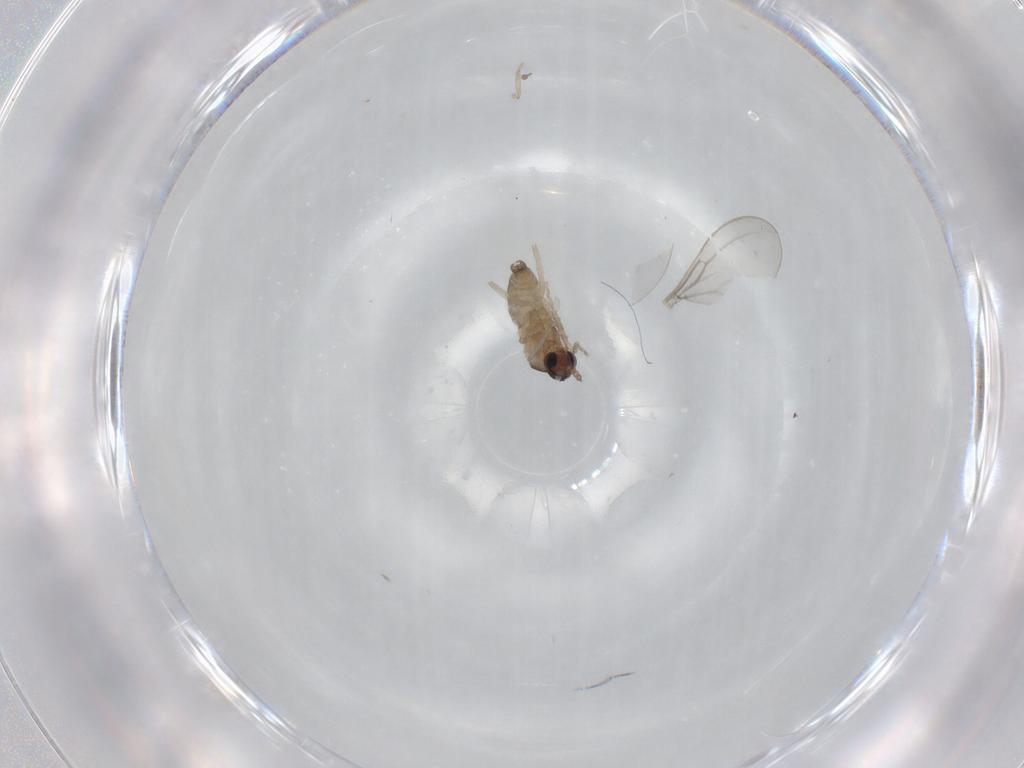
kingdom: Animalia
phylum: Arthropoda
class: Insecta
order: Diptera
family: Cecidomyiidae
